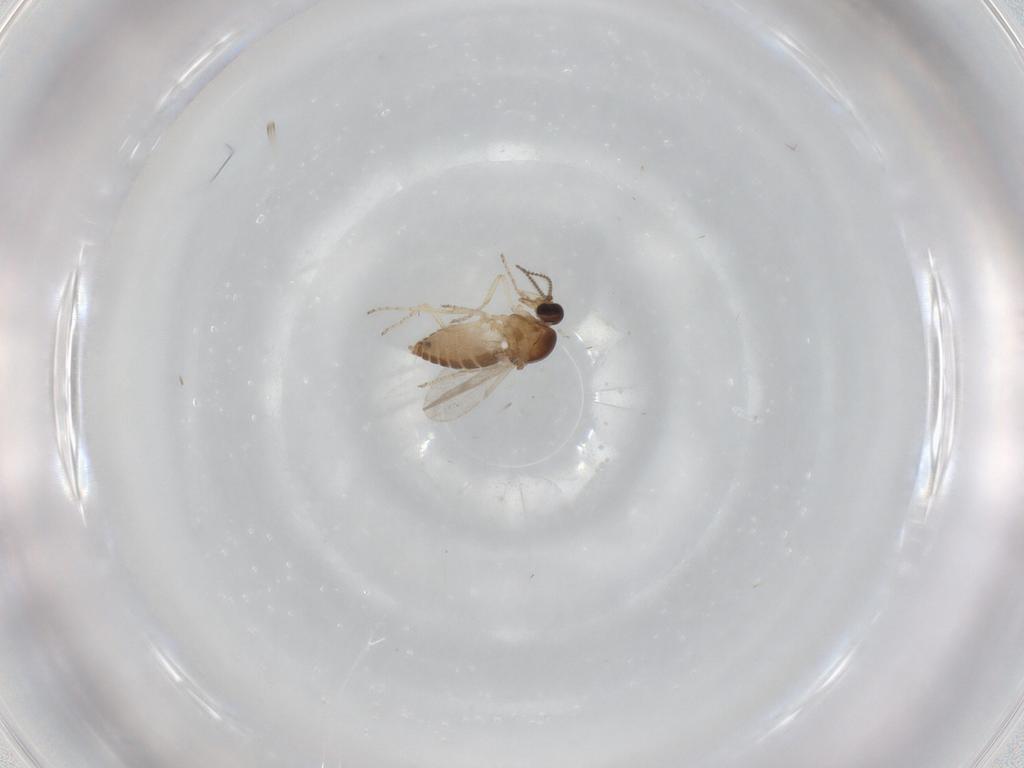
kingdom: Animalia
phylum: Arthropoda
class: Insecta
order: Diptera
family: Ceratopogonidae
